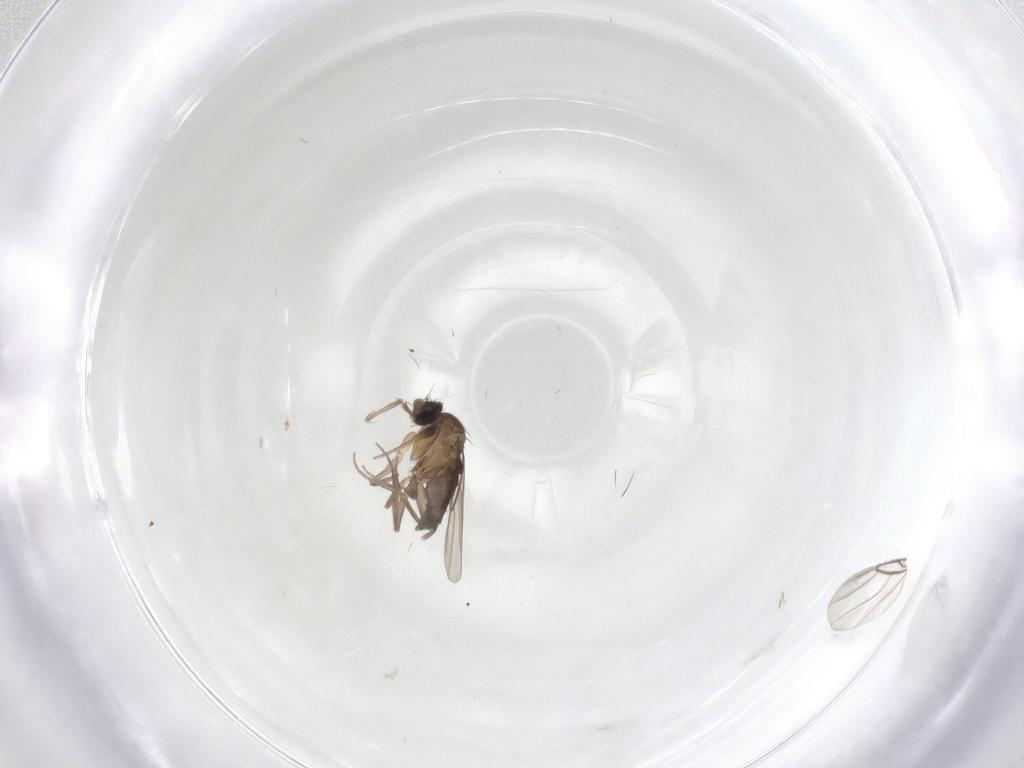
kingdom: Animalia
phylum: Arthropoda
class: Insecta
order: Diptera
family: Phoridae
